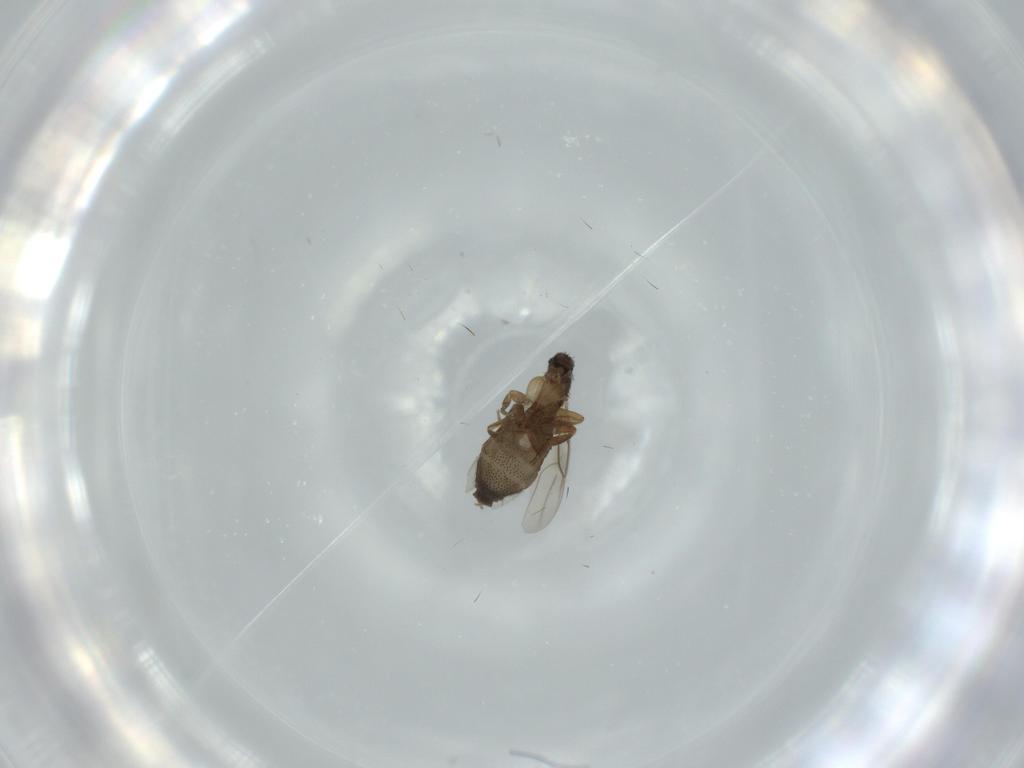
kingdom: Animalia
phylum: Arthropoda
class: Insecta
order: Diptera
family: Phoridae
